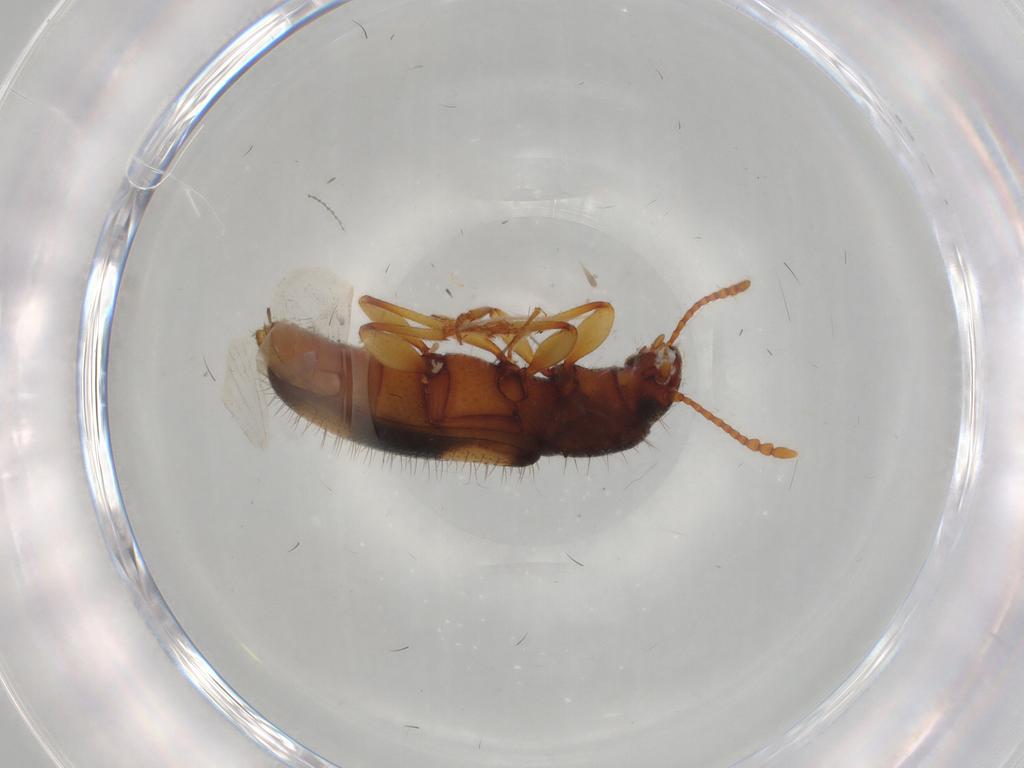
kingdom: Animalia
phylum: Arthropoda
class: Insecta
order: Coleoptera
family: Silvanidae
